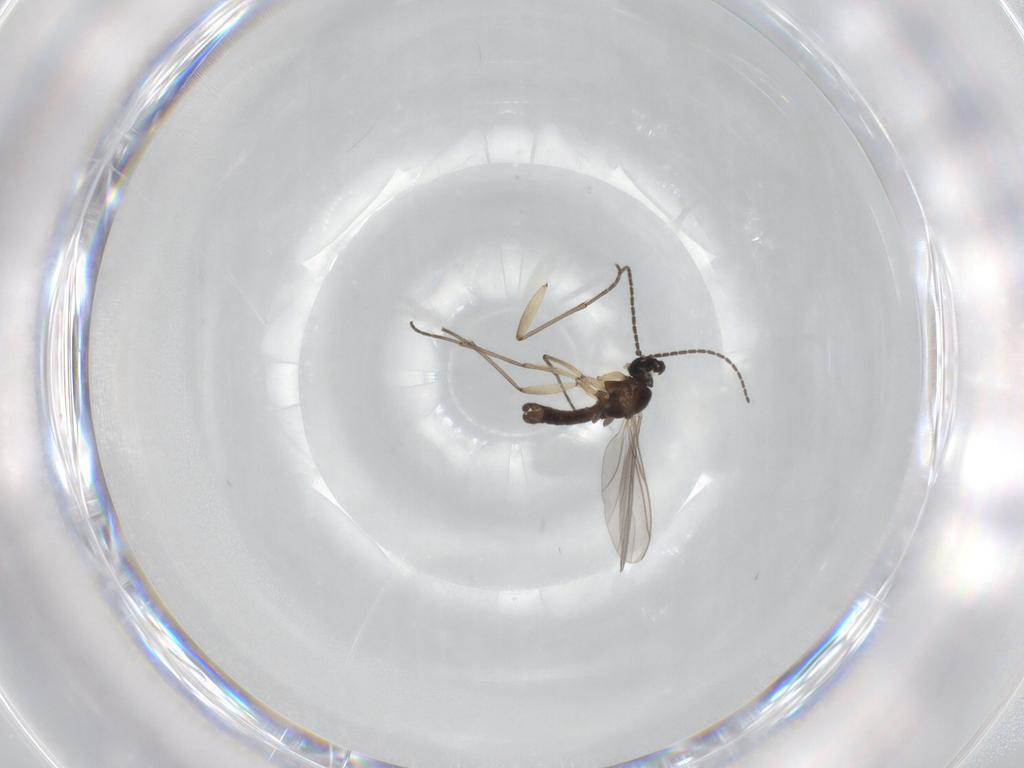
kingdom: Animalia
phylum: Arthropoda
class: Insecta
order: Diptera
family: Sciaridae
